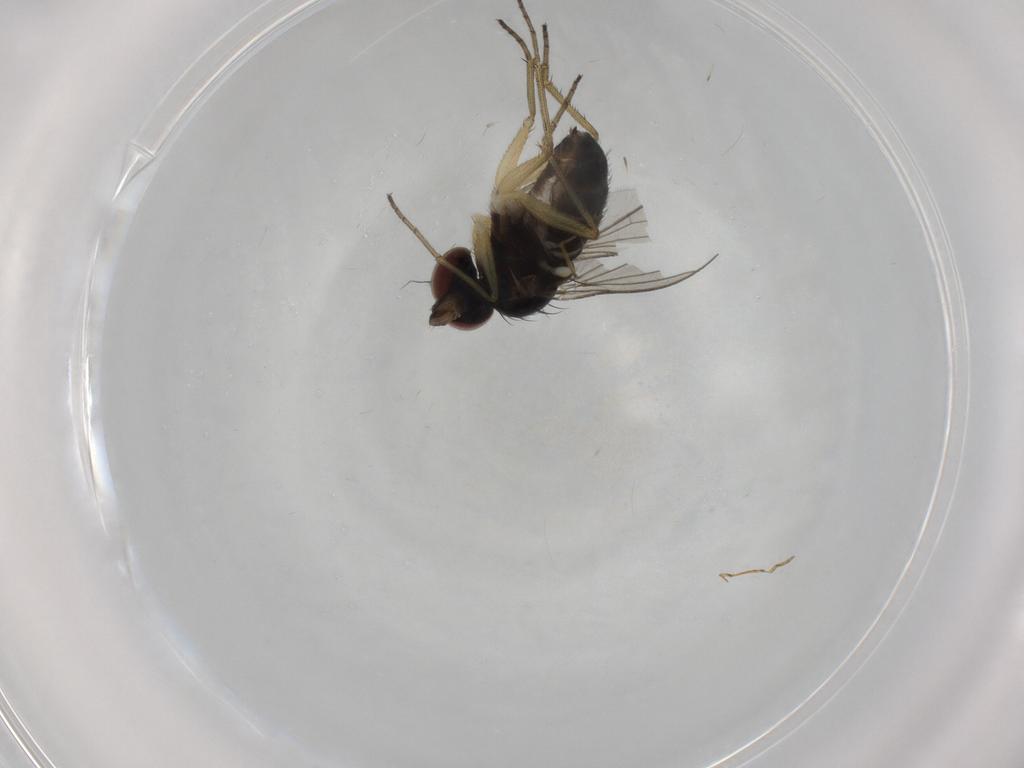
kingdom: Animalia
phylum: Arthropoda
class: Insecta
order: Diptera
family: Dolichopodidae
